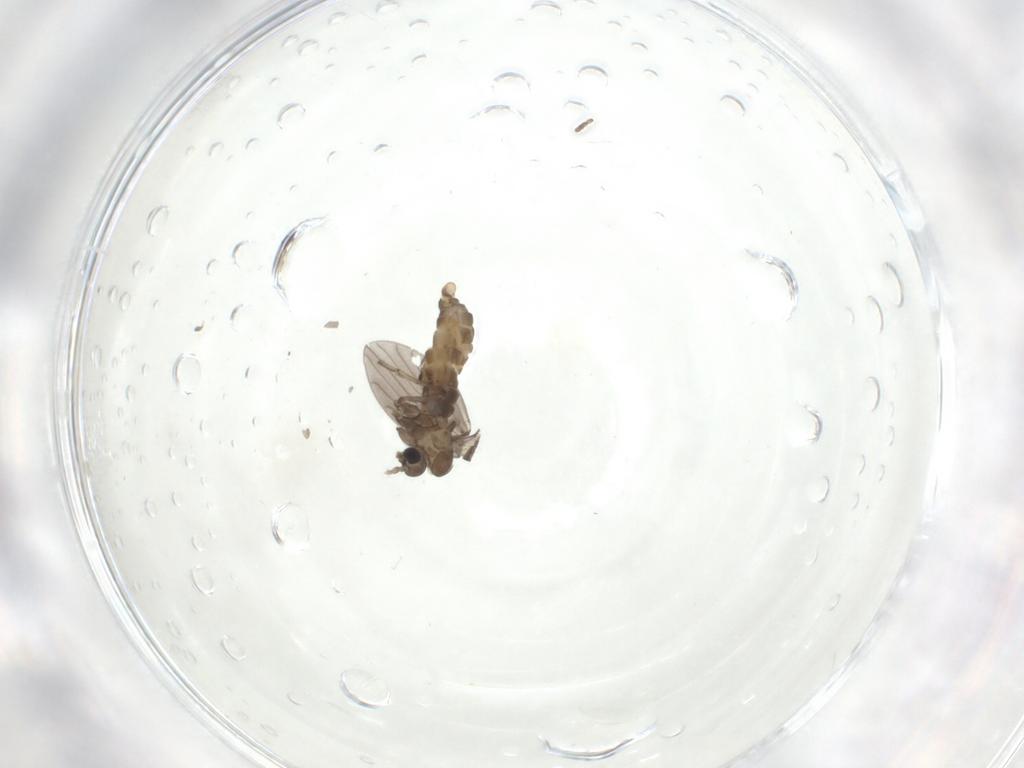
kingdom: Animalia
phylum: Arthropoda
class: Insecta
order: Diptera
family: Psychodidae
